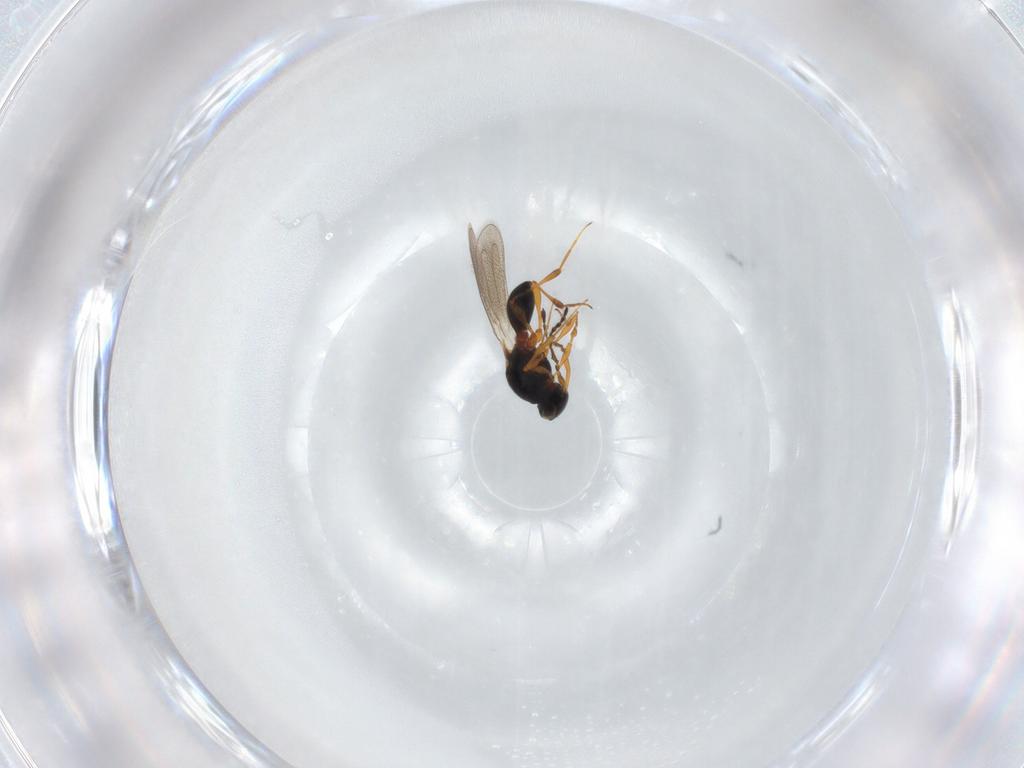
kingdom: Animalia
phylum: Arthropoda
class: Insecta
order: Hymenoptera
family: Platygastridae
